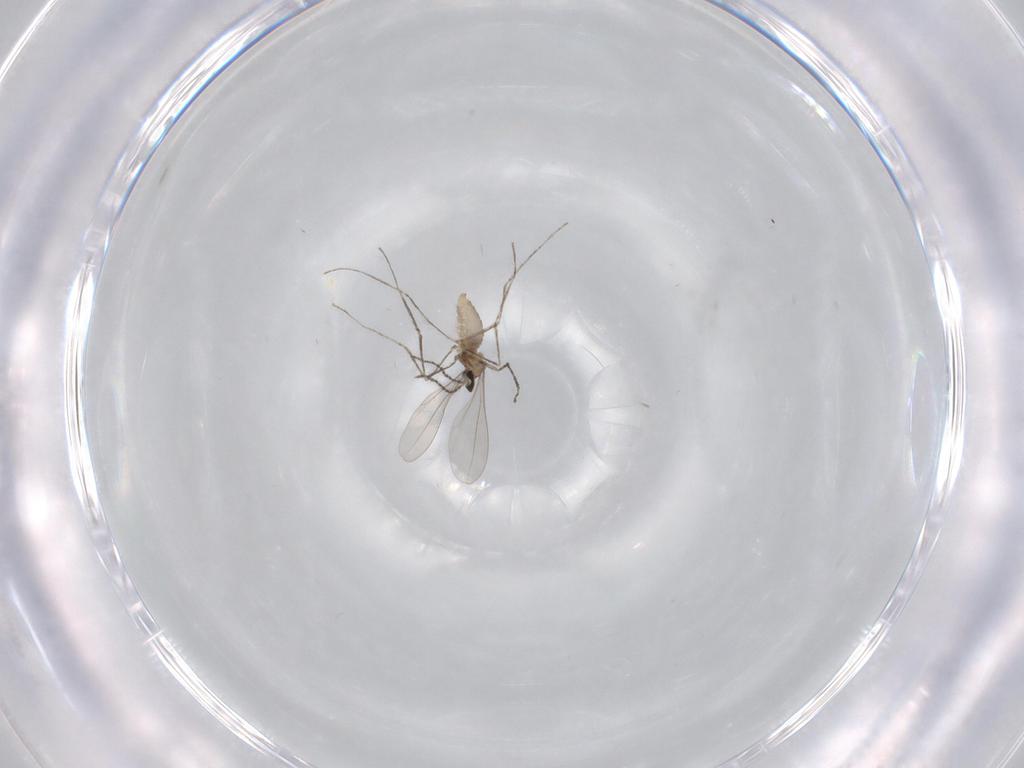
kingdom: Animalia
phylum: Arthropoda
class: Insecta
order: Diptera
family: Cecidomyiidae
